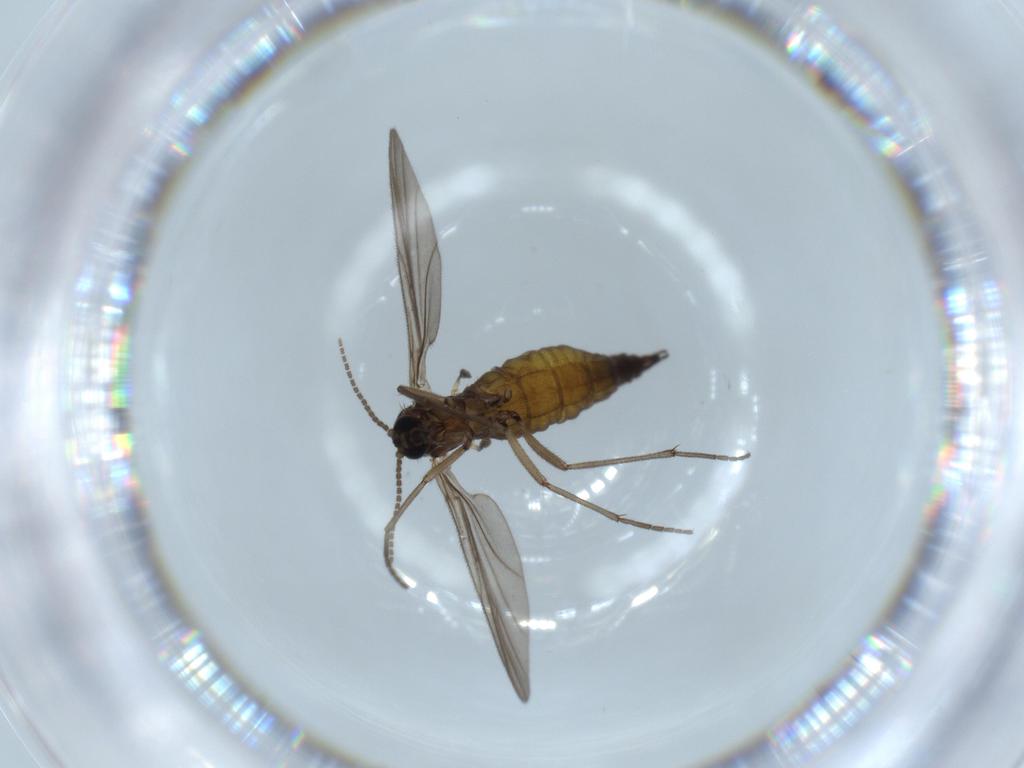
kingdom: Animalia
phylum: Arthropoda
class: Insecta
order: Diptera
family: Sciaridae
